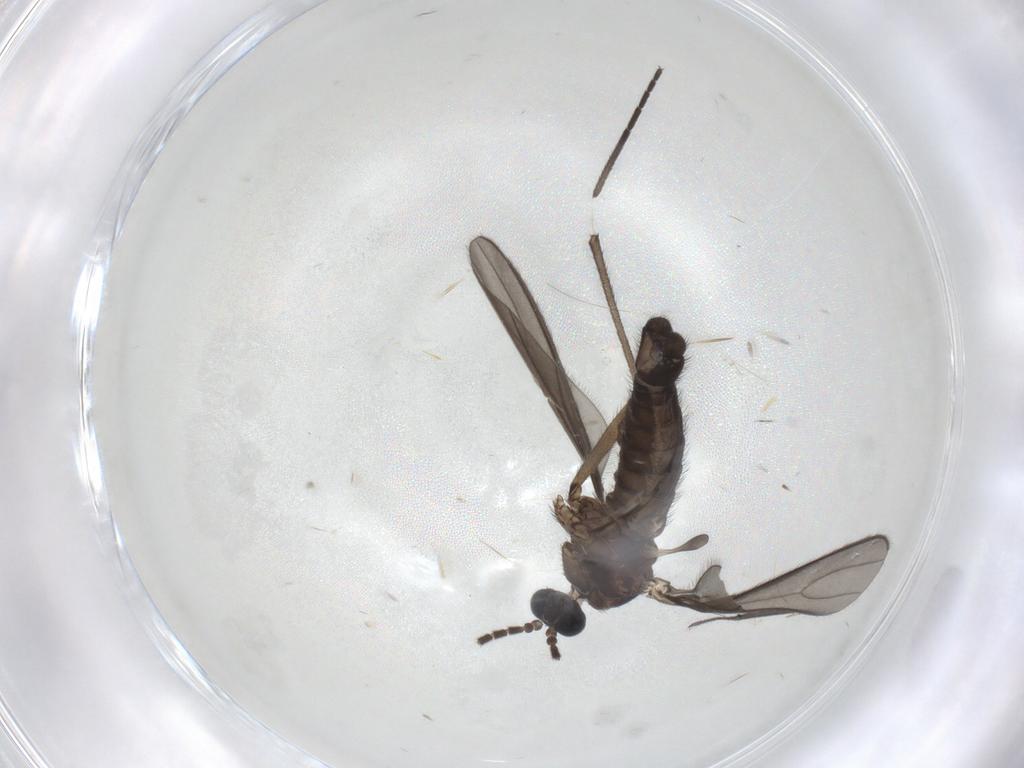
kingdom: Animalia
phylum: Arthropoda
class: Insecta
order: Diptera
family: Sciaridae
